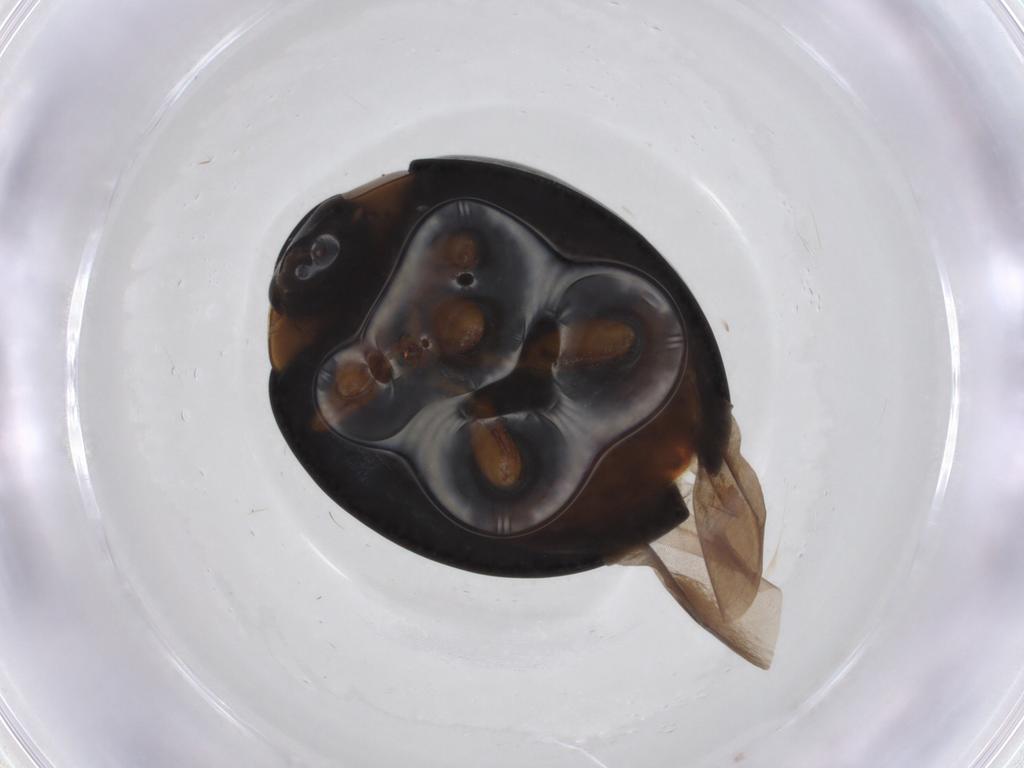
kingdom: Animalia
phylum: Arthropoda
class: Insecta
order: Coleoptera
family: Coccinellidae
